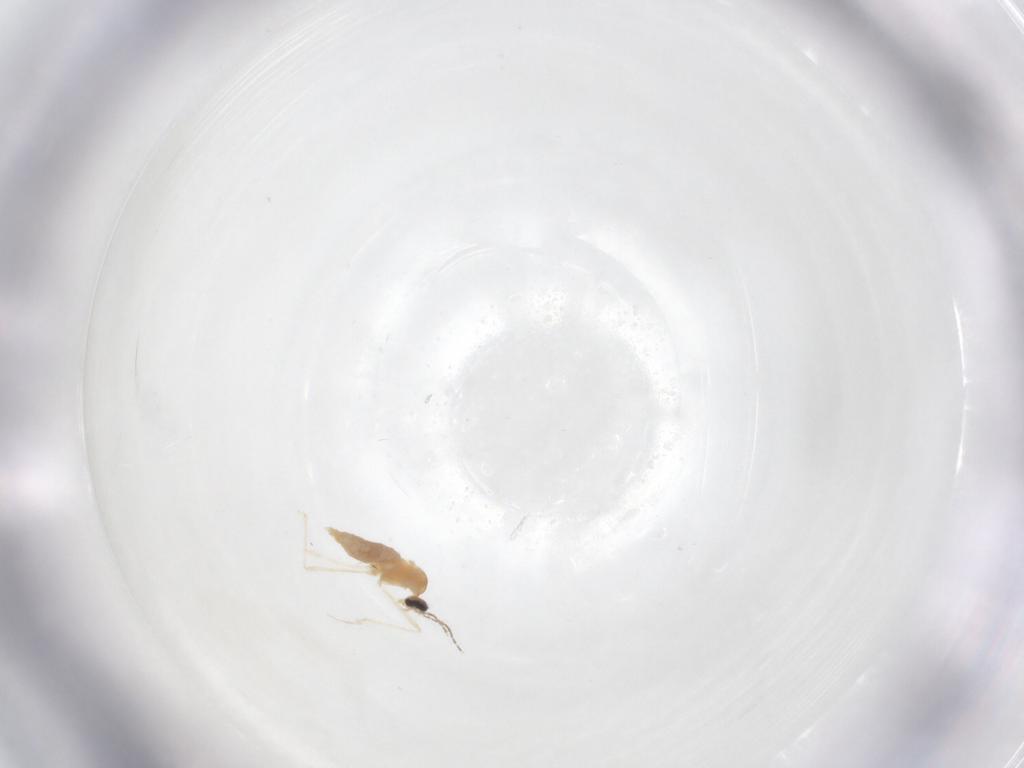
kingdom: Animalia
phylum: Arthropoda
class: Insecta
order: Diptera
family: Cecidomyiidae
